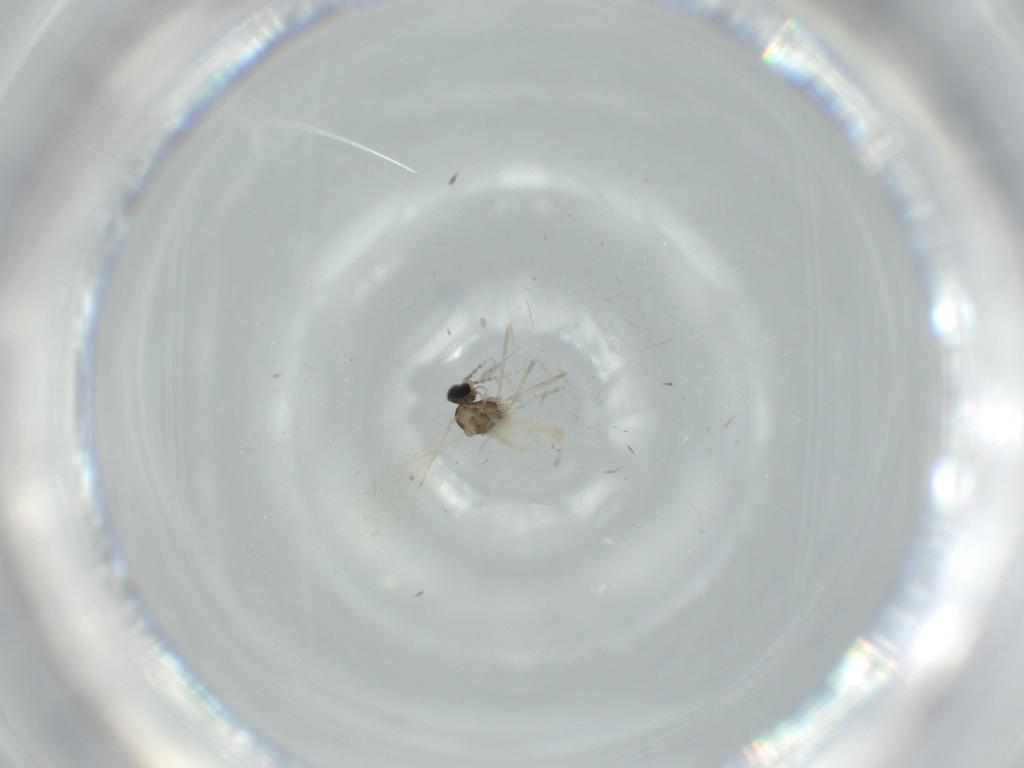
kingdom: Animalia
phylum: Arthropoda
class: Insecta
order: Diptera
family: Cecidomyiidae
